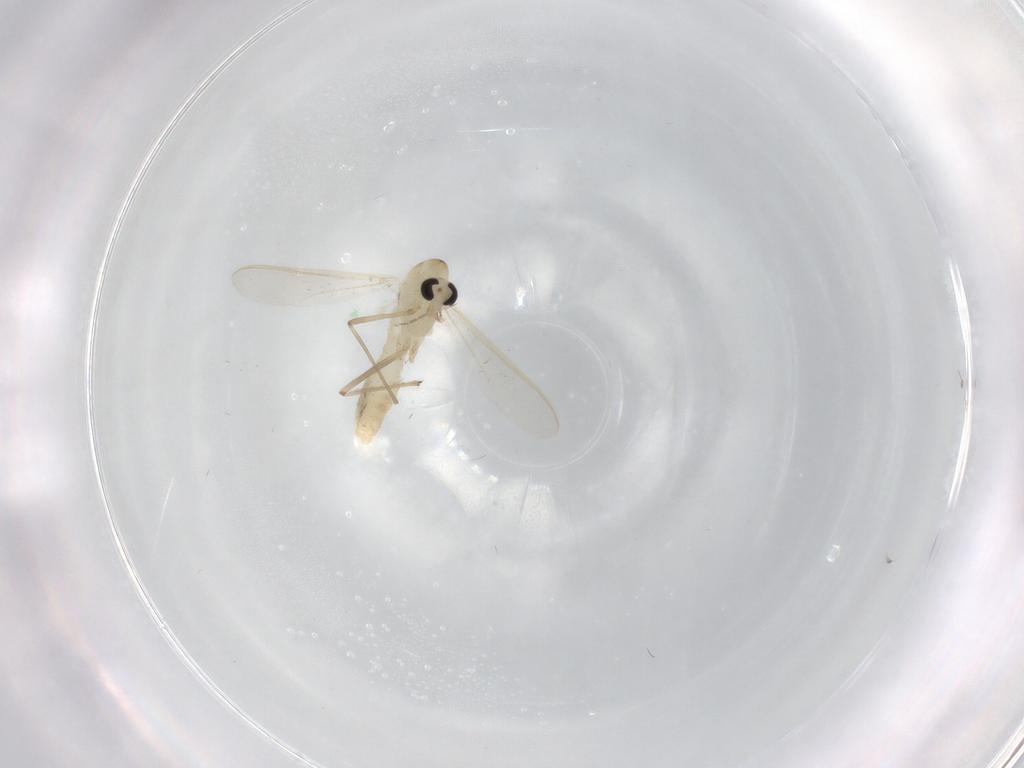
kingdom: Animalia
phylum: Arthropoda
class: Insecta
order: Diptera
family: Chironomidae
